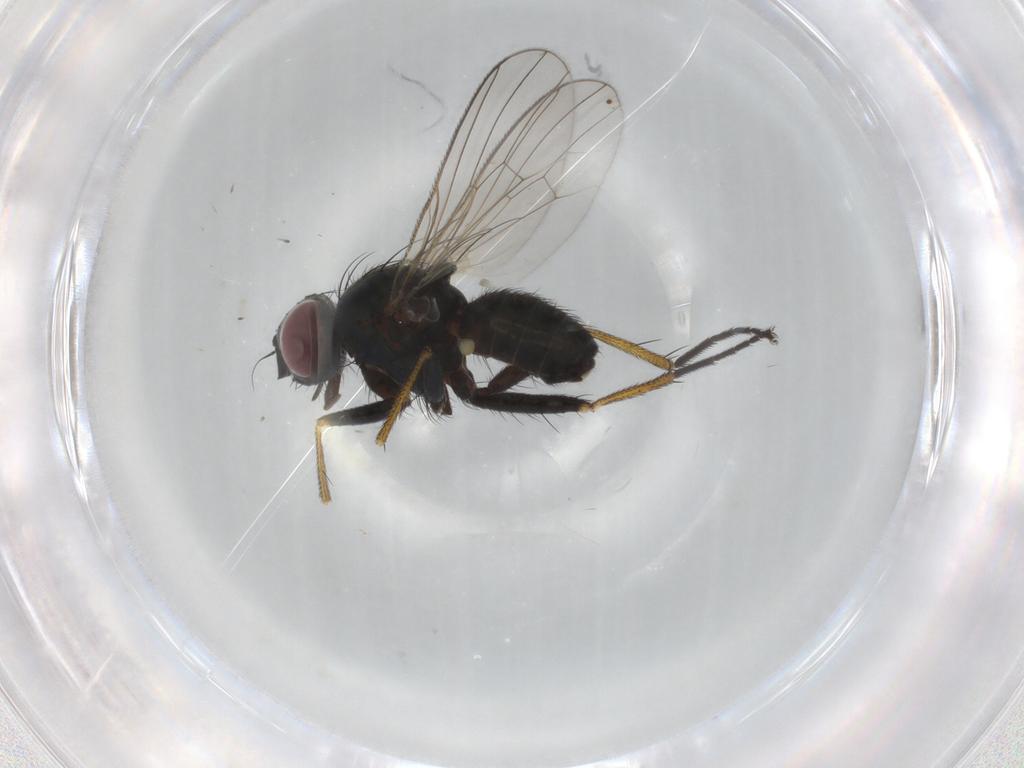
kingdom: Animalia
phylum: Arthropoda
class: Insecta
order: Diptera
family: Muscidae
